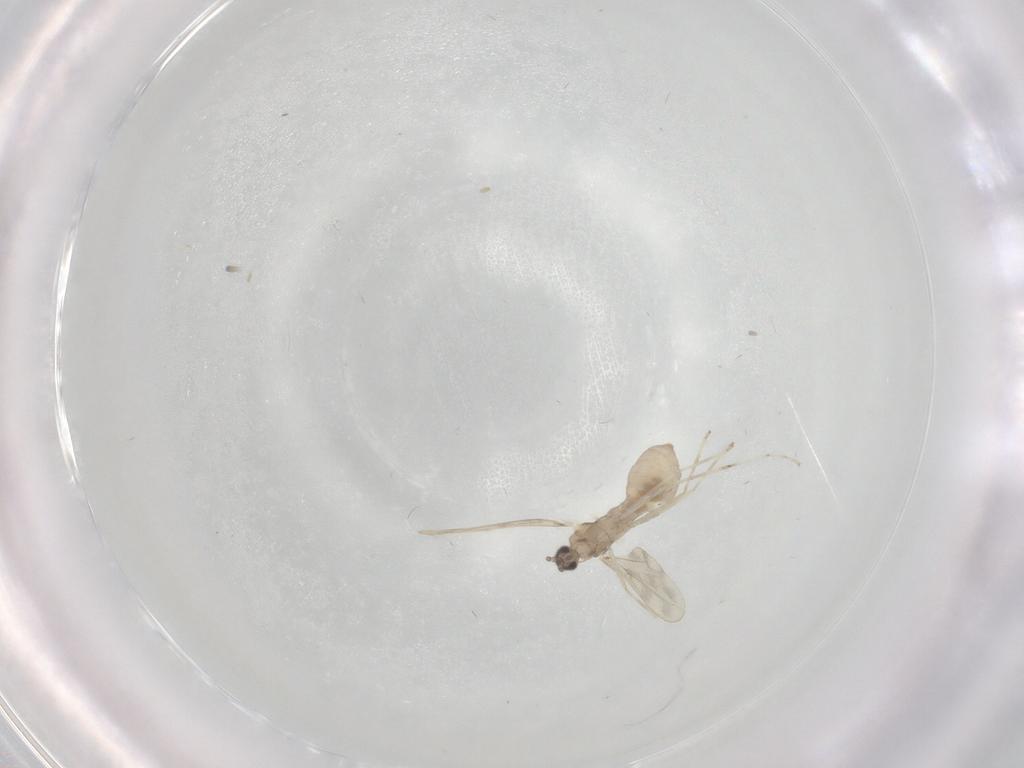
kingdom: Animalia
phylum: Arthropoda
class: Insecta
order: Diptera
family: Cecidomyiidae
